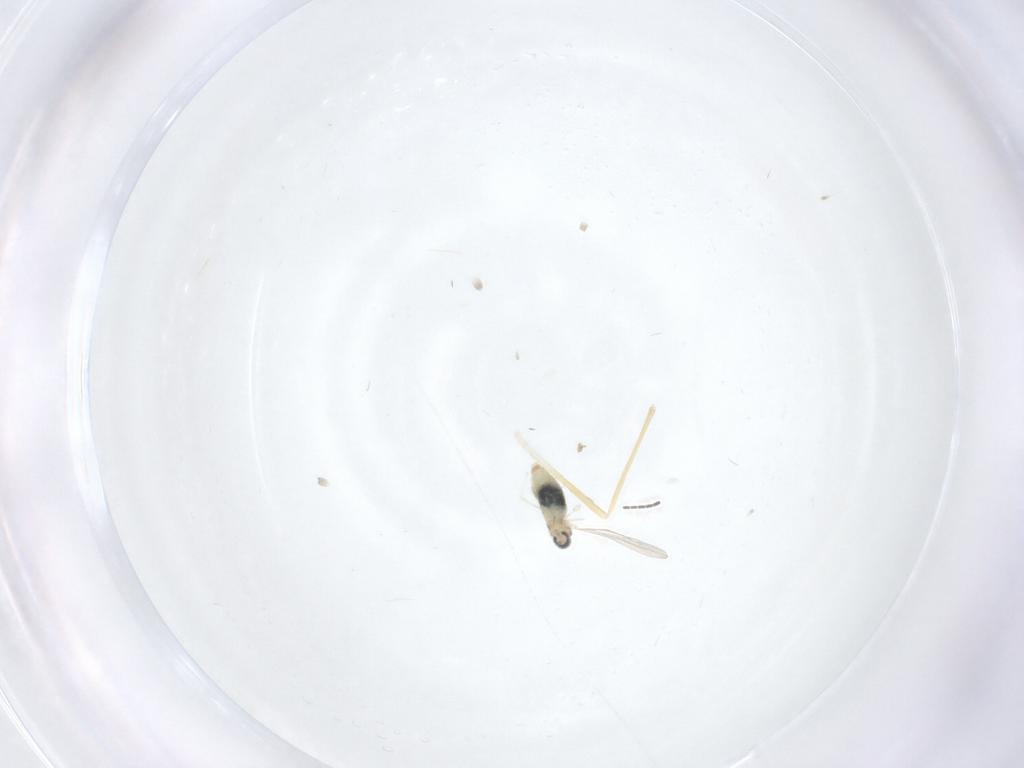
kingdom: Animalia
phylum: Arthropoda
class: Insecta
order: Diptera
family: Sciaridae
